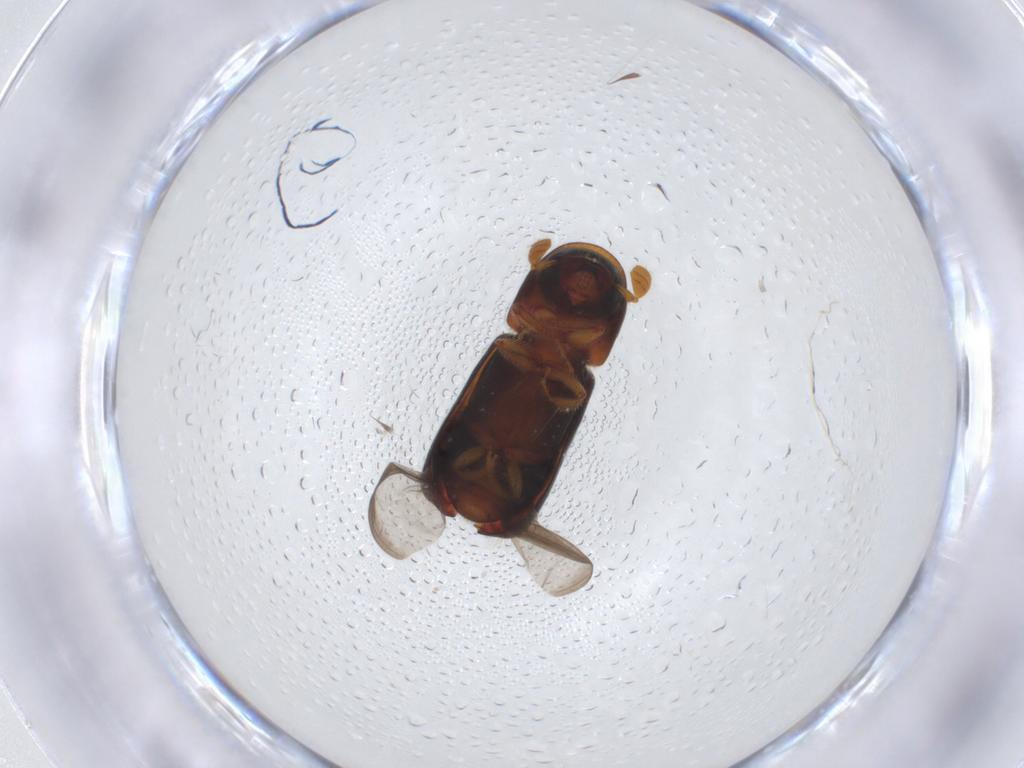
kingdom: Animalia
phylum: Arthropoda
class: Insecta
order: Coleoptera
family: Curculionidae
